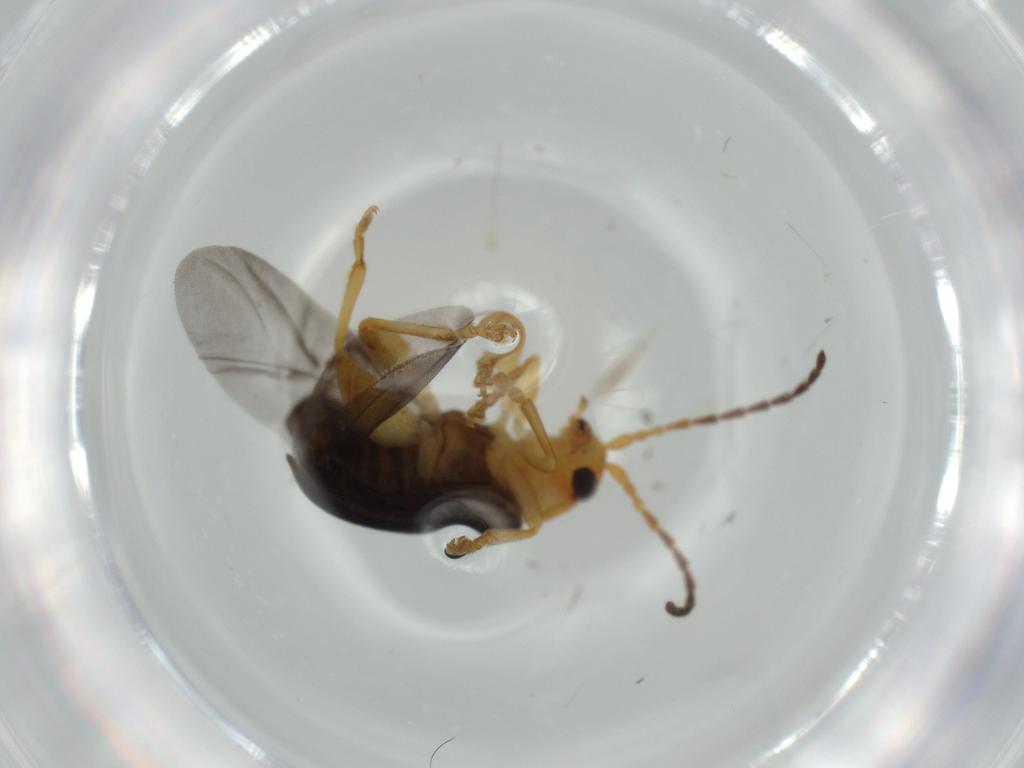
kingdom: Animalia
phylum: Arthropoda
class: Insecta
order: Coleoptera
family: Chrysomelidae
